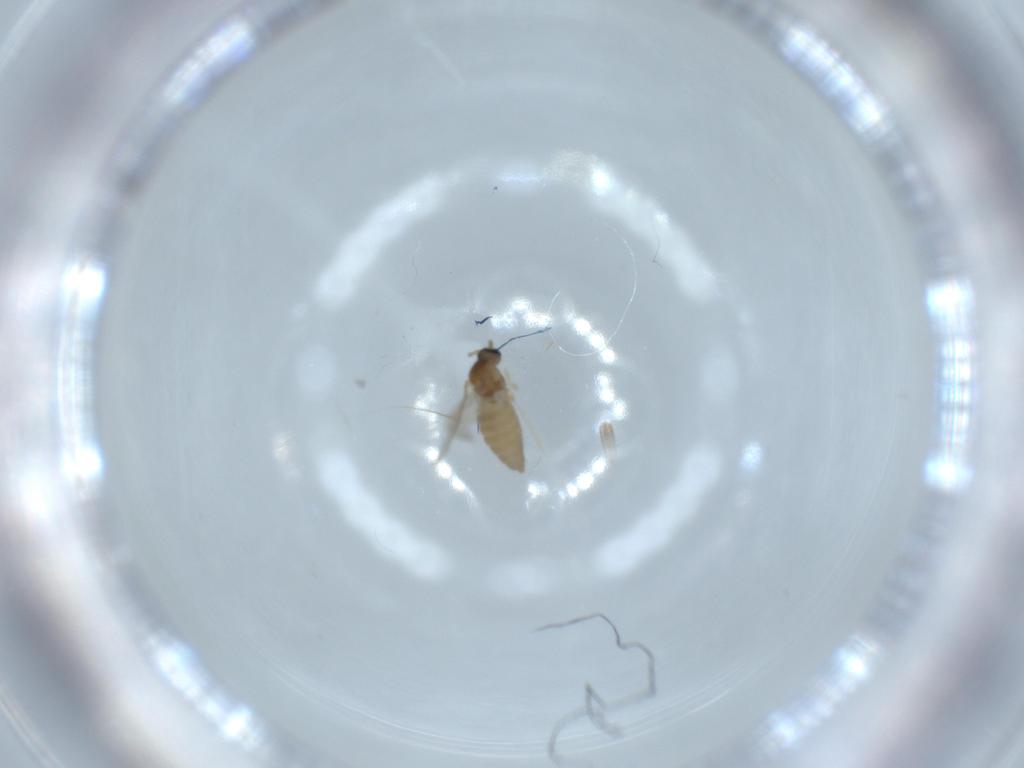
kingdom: Animalia
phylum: Arthropoda
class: Insecta
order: Diptera
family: Cecidomyiidae
